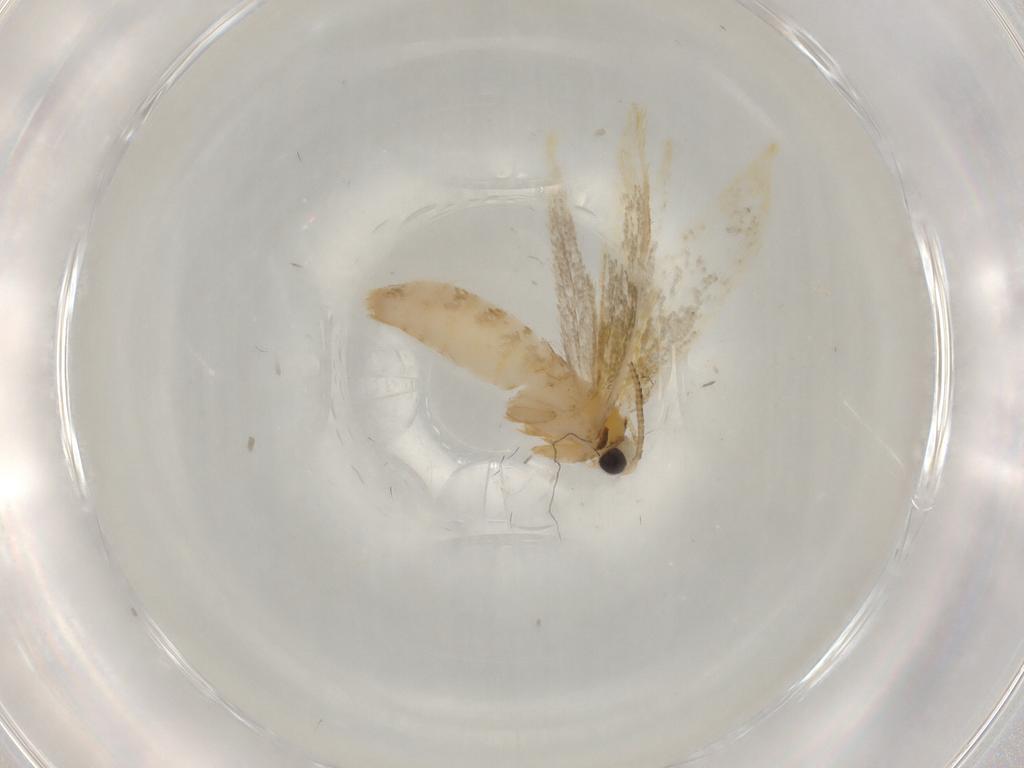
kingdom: Animalia
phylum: Arthropoda
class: Insecta
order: Lepidoptera
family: Tineidae
